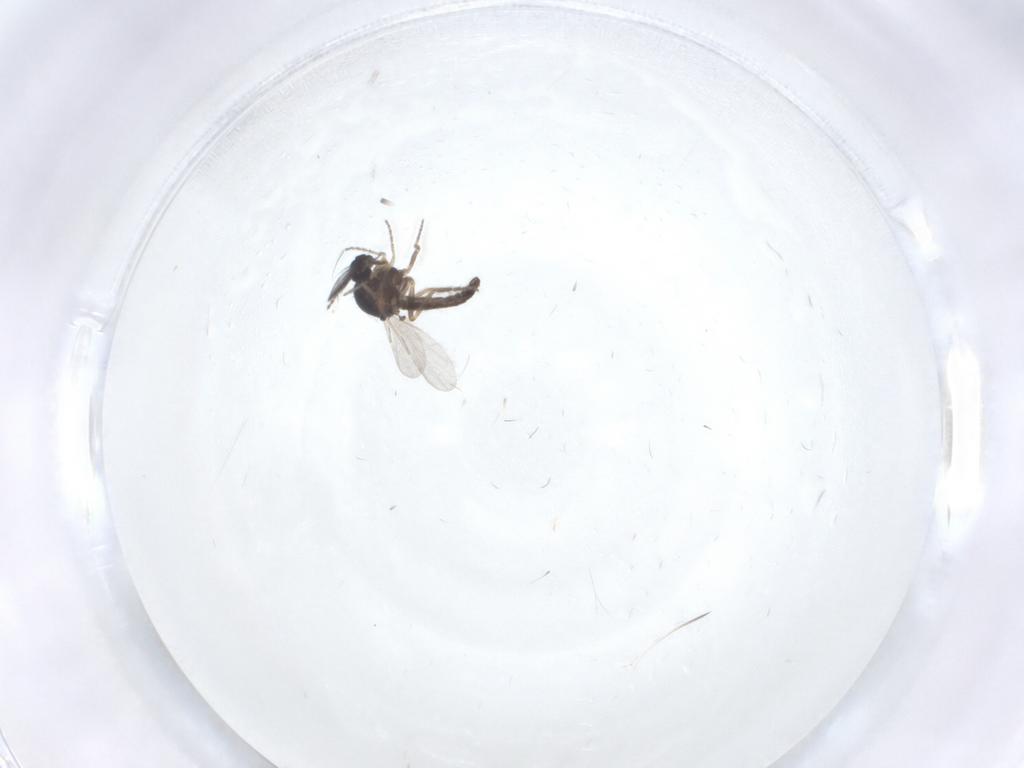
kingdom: Animalia
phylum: Arthropoda
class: Insecta
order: Diptera
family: Ceratopogonidae
